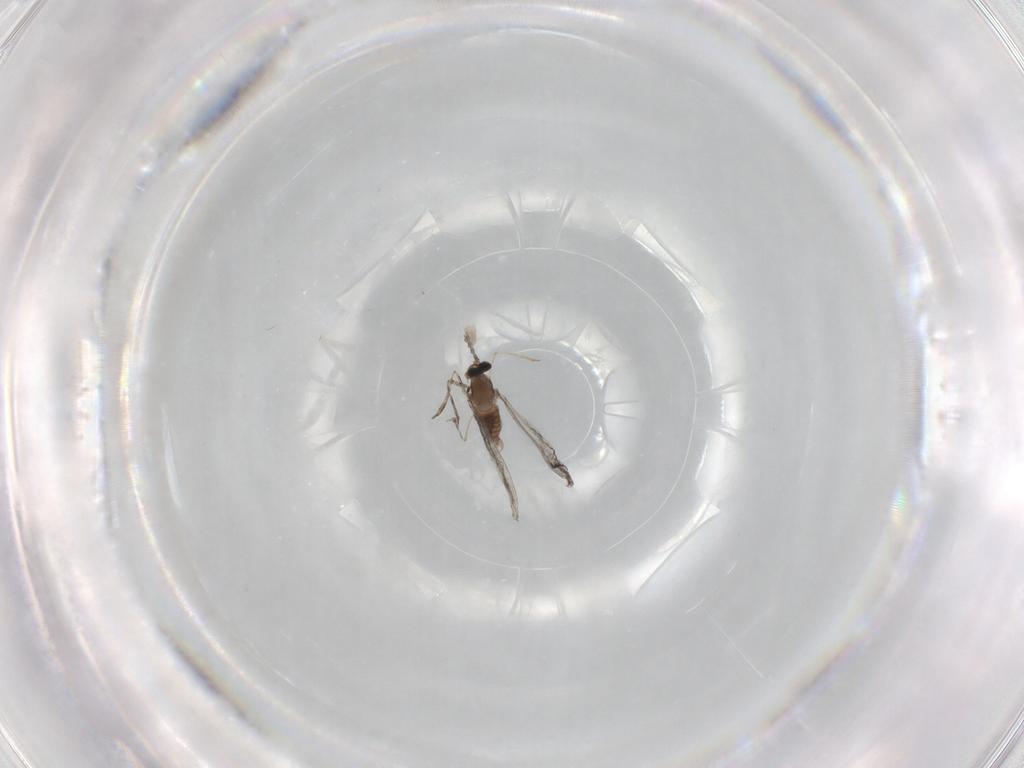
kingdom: Animalia
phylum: Arthropoda
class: Insecta
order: Diptera
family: Cecidomyiidae
